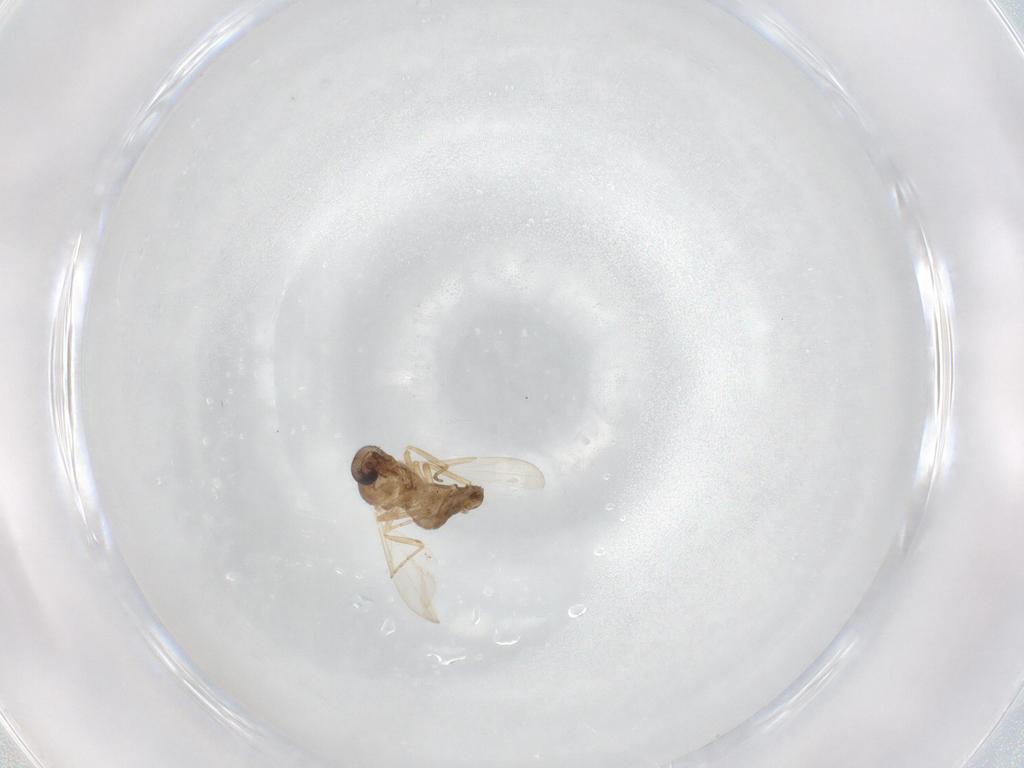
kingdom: Animalia
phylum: Arthropoda
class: Insecta
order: Diptera
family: Chloropidae
